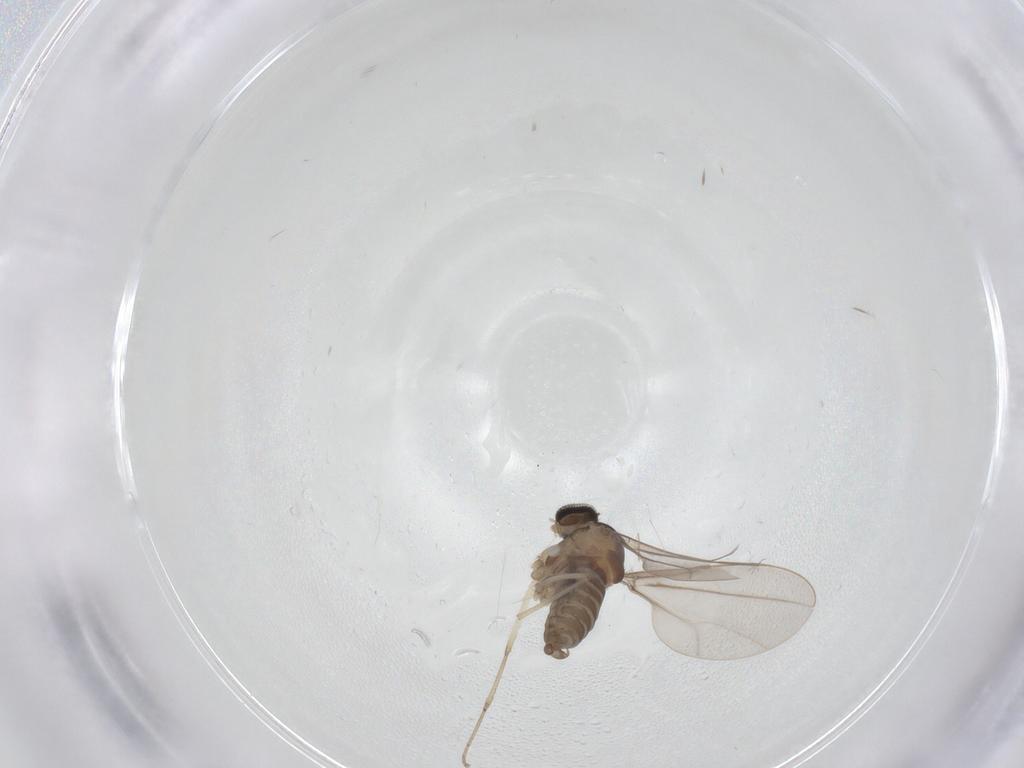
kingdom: Animalia
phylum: Arthropoda
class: Insecta
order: Diptera
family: Cecidomyiidae
